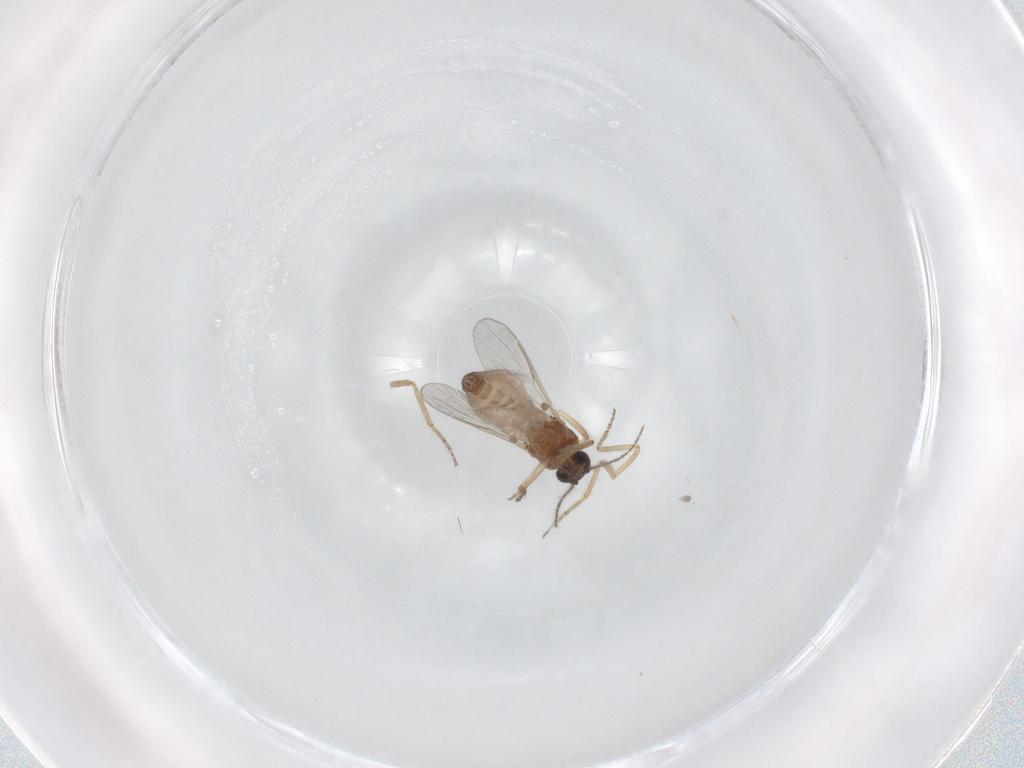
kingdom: Animalia
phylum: Arthropoda
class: Insecta
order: Diptera
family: Ceratopogonidae
